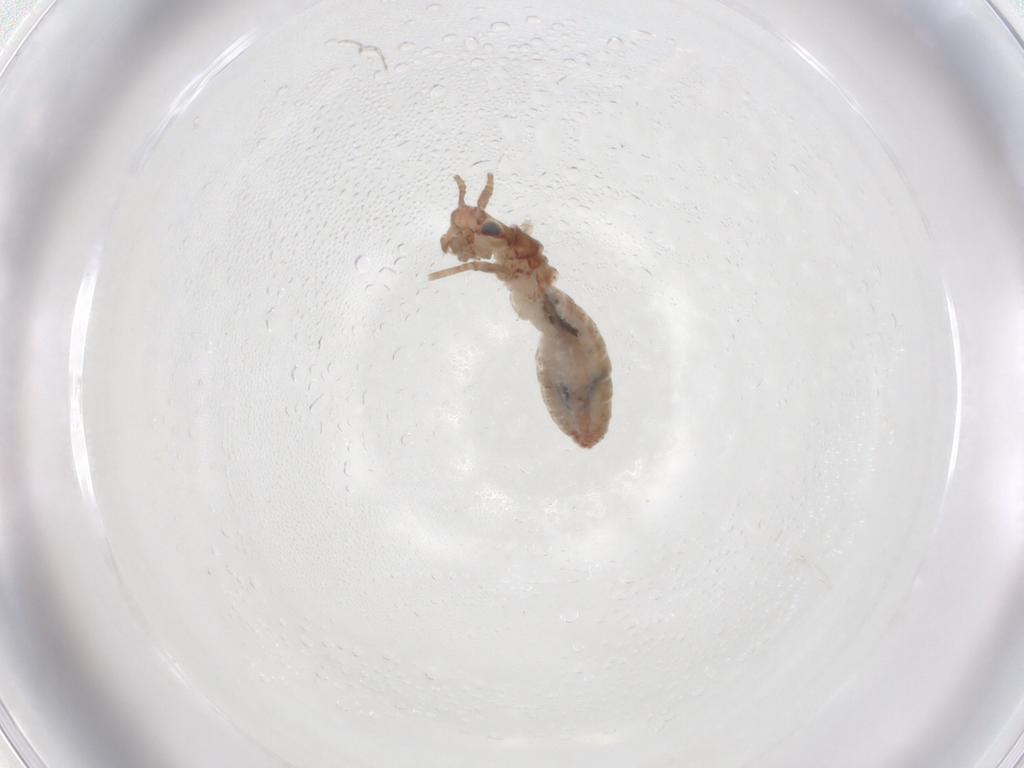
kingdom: Animalia
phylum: Arthropoda
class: Insecta
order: Orthoptera
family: Mogoplistidae
